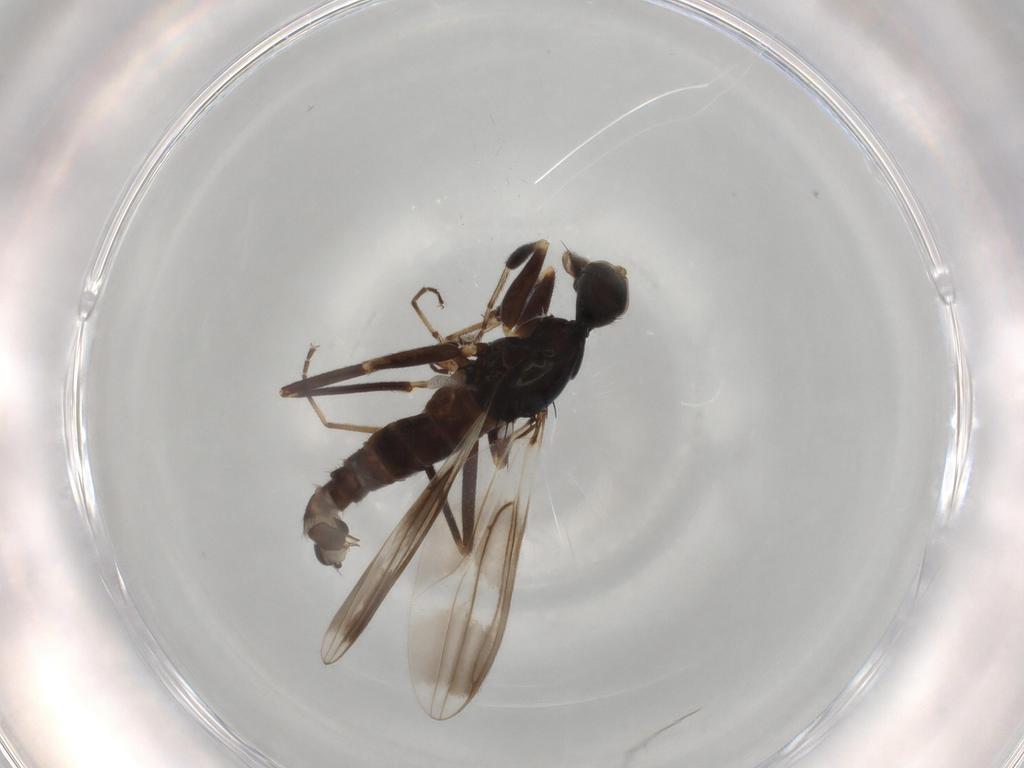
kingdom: Animalia
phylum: Arthropoda
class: Insecta
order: Diptera
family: Hybotidae
